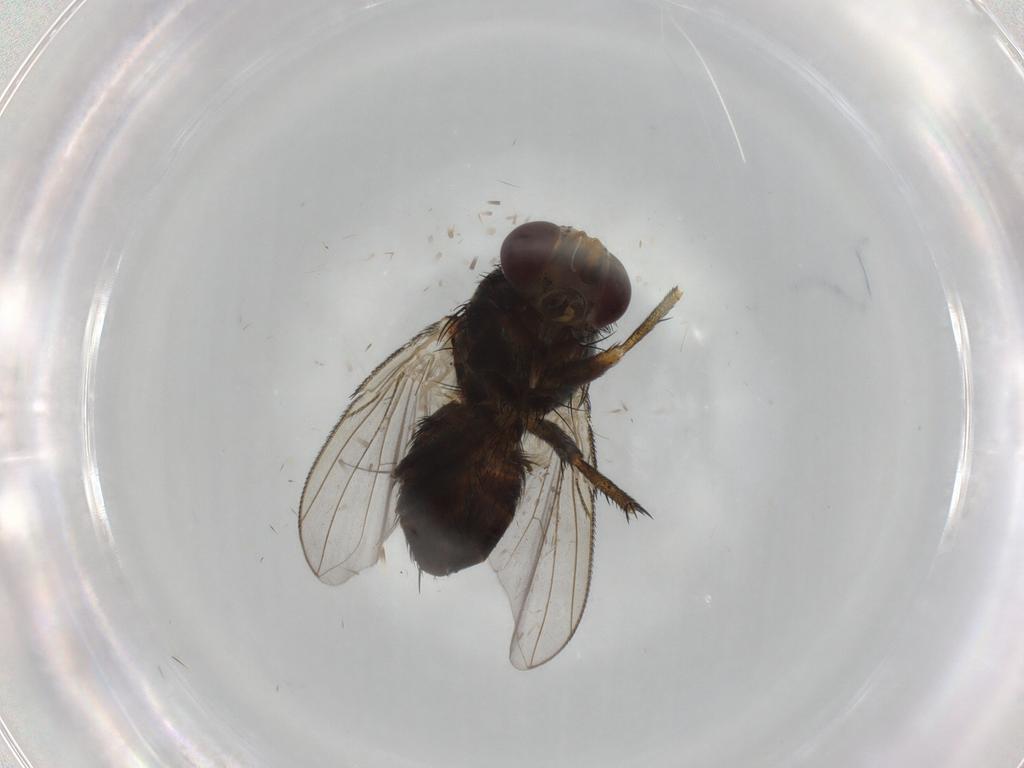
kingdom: Animalia
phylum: Arthropoda
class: Insecta
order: Diptera
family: Tachinidae
